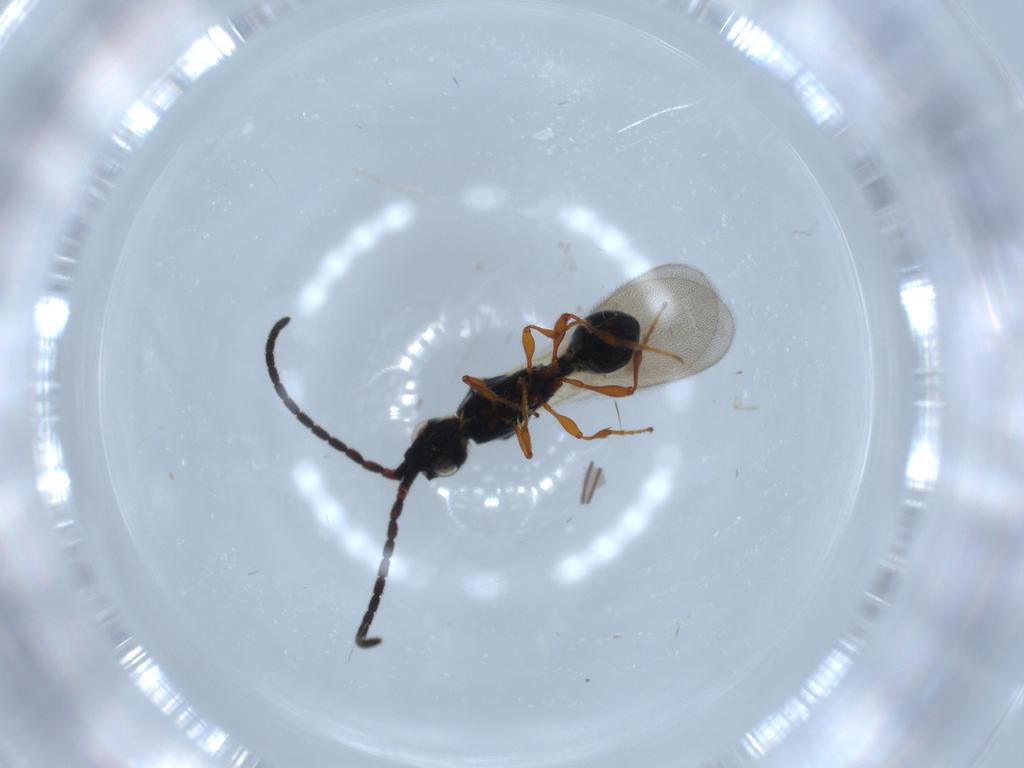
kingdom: Animalia
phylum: Arthropoda
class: Insecta
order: Hymenoptera
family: Diapriidae
